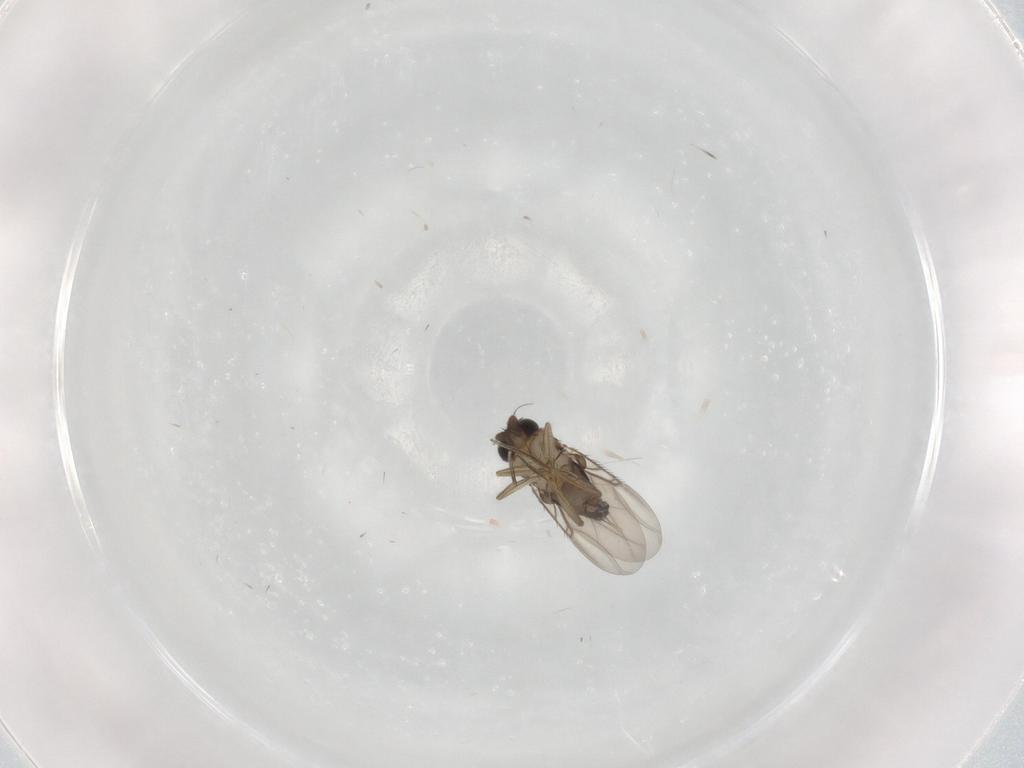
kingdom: Animalia
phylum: Arthropoda
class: Insecta
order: Diptera
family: Phoridae
